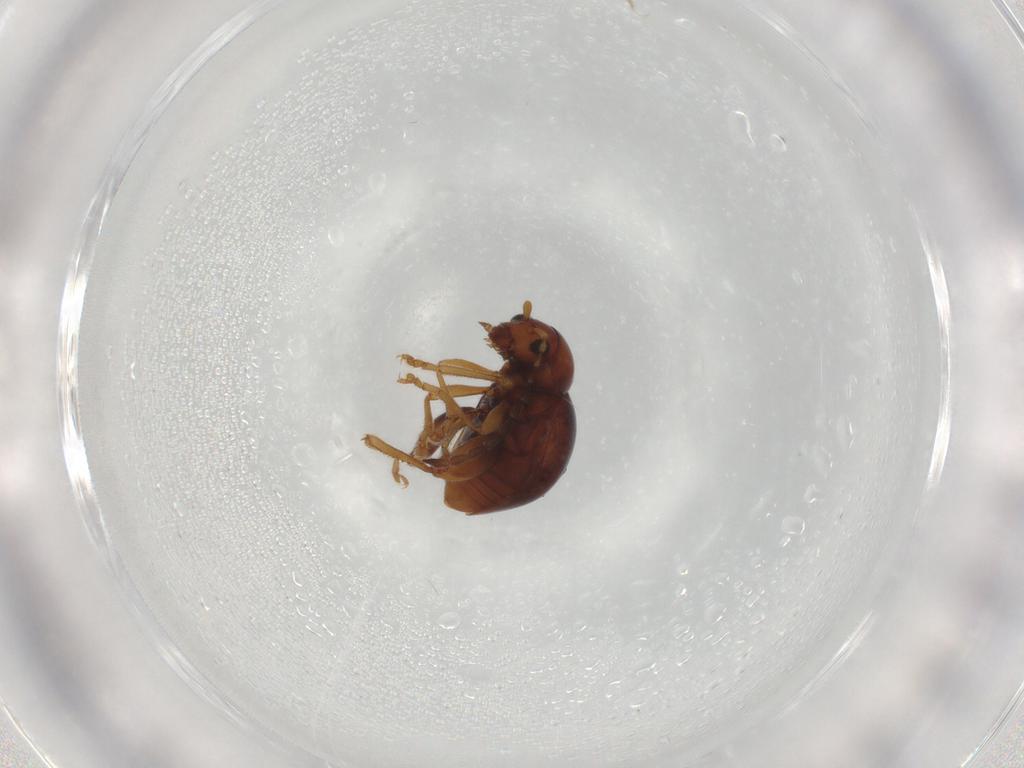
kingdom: Animalia
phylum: Arthropoda
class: Insecta
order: Coleoptera
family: Chrysomelidae
